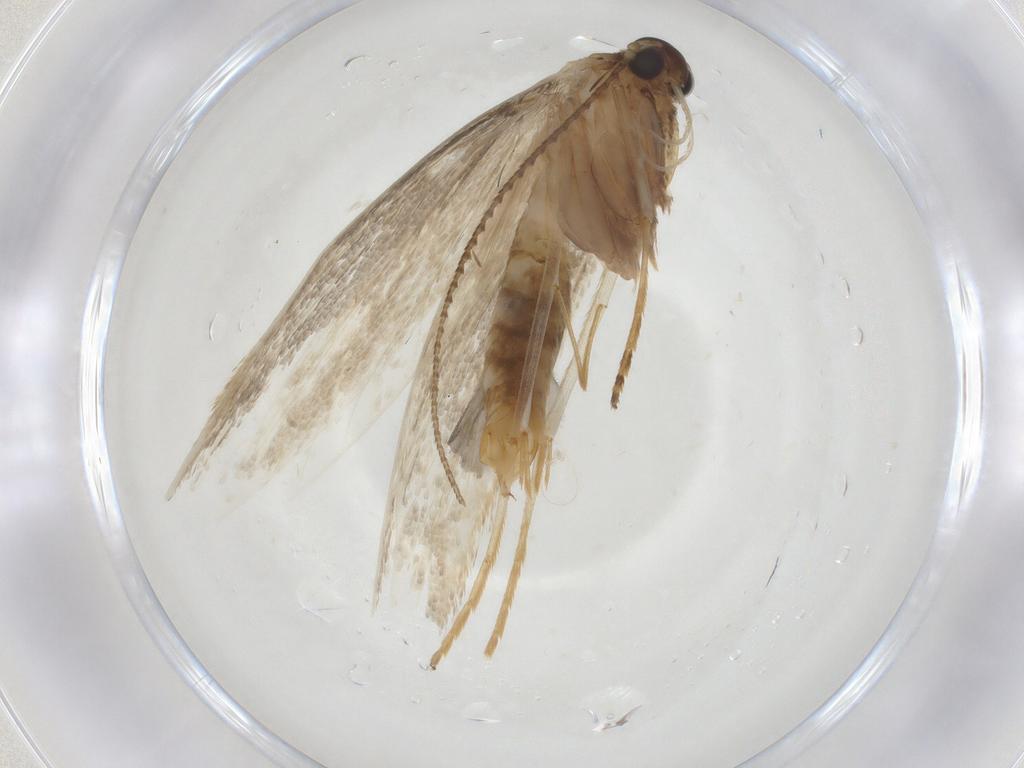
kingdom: Animalia
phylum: Arthropoda
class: Insecta
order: Lepidoptera
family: Erebidae
